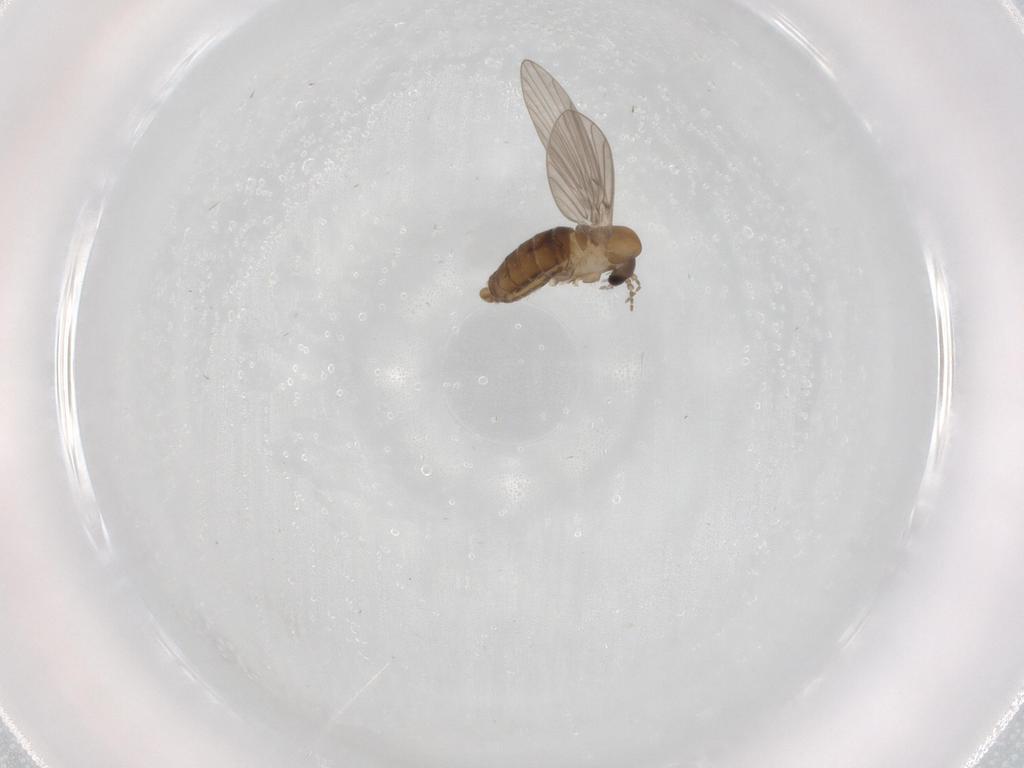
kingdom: Animalia
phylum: Arthropoda
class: Insecta
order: Diptera
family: Psychodidae
